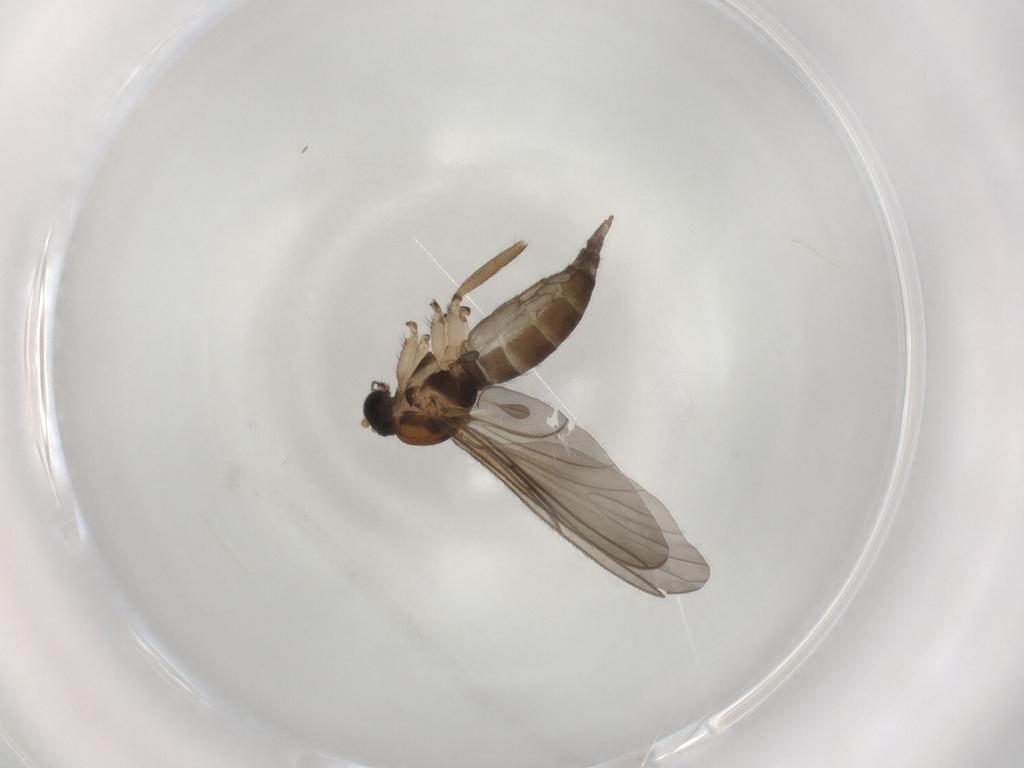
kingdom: Animalia
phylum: Arthropoda
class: Insecta
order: Diptera
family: Sciaridae
